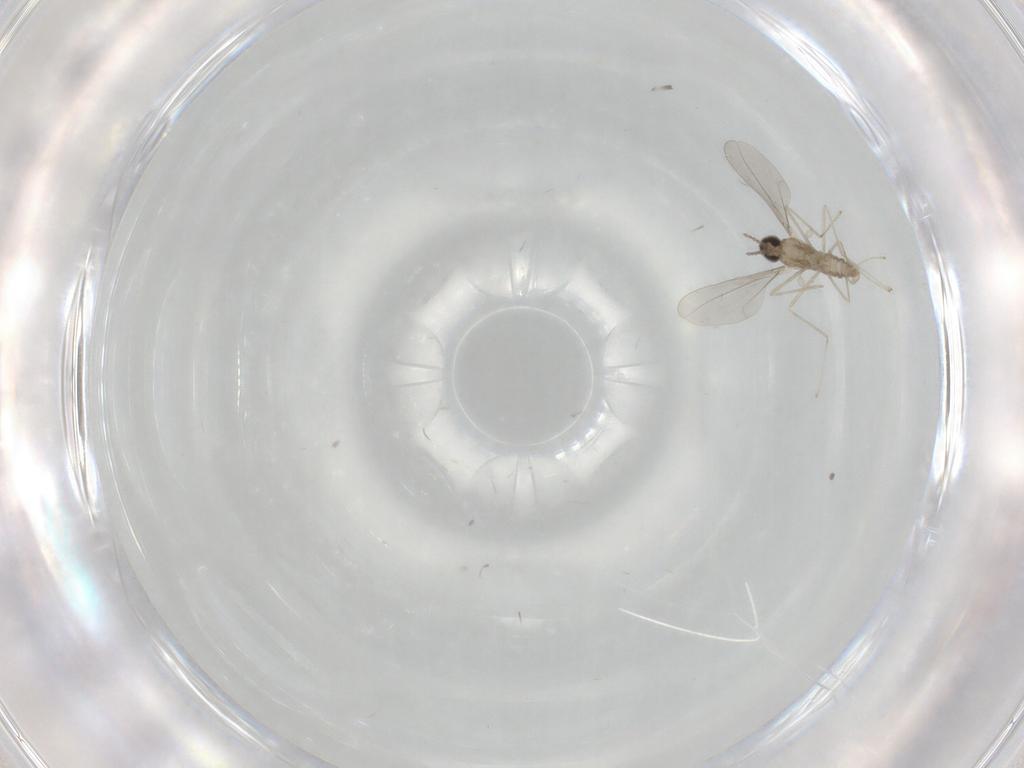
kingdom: Animalia
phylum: Arthropoda
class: Insecta
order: Diptera
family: Cecidomyiidae
